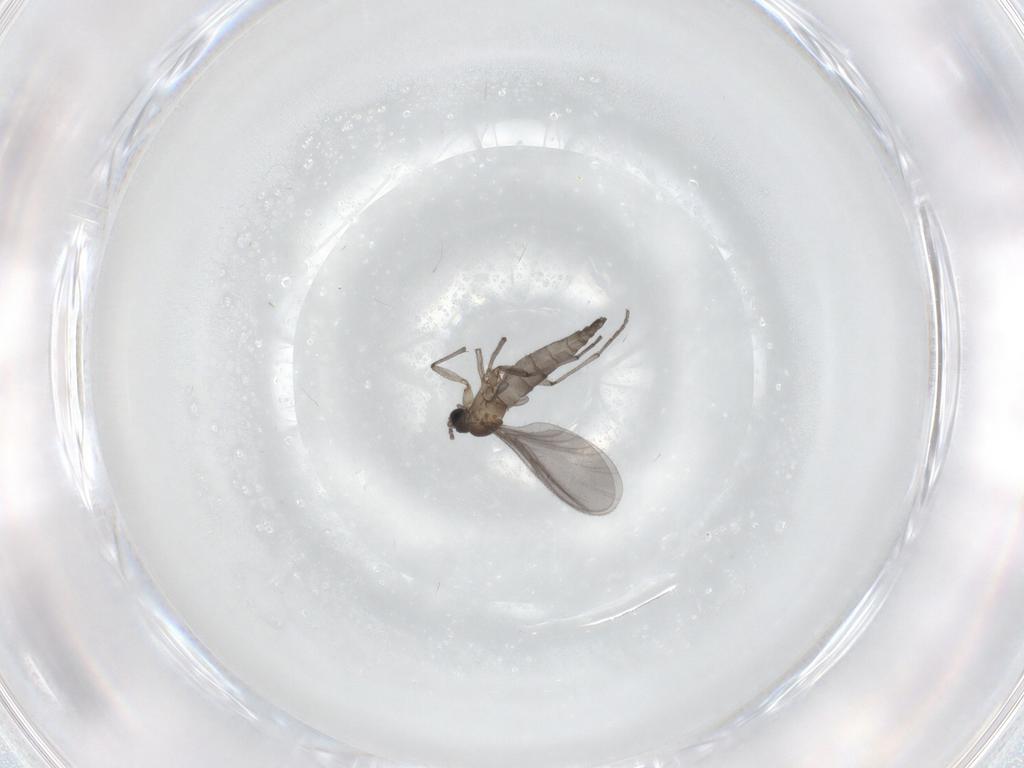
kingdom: Animalia
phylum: Arthropoda
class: Insecta
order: Diptera
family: Sciaridae
